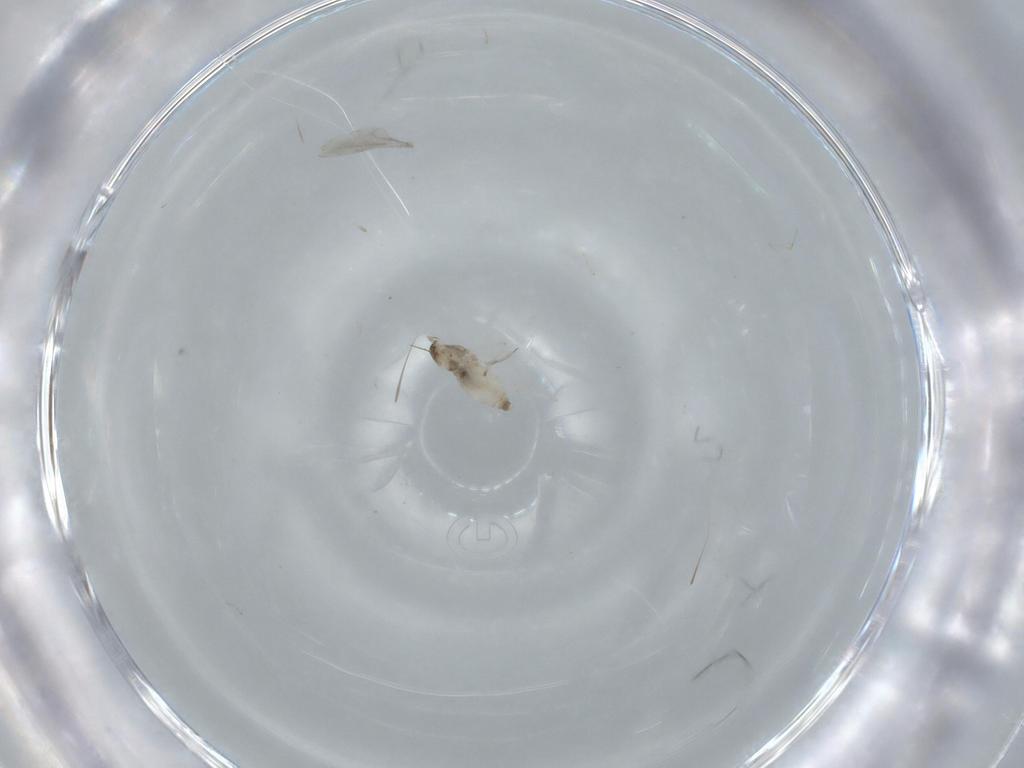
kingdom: Animalia
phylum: Arthropoda
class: Insecta
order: Diptera
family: Cecidomyiidae
